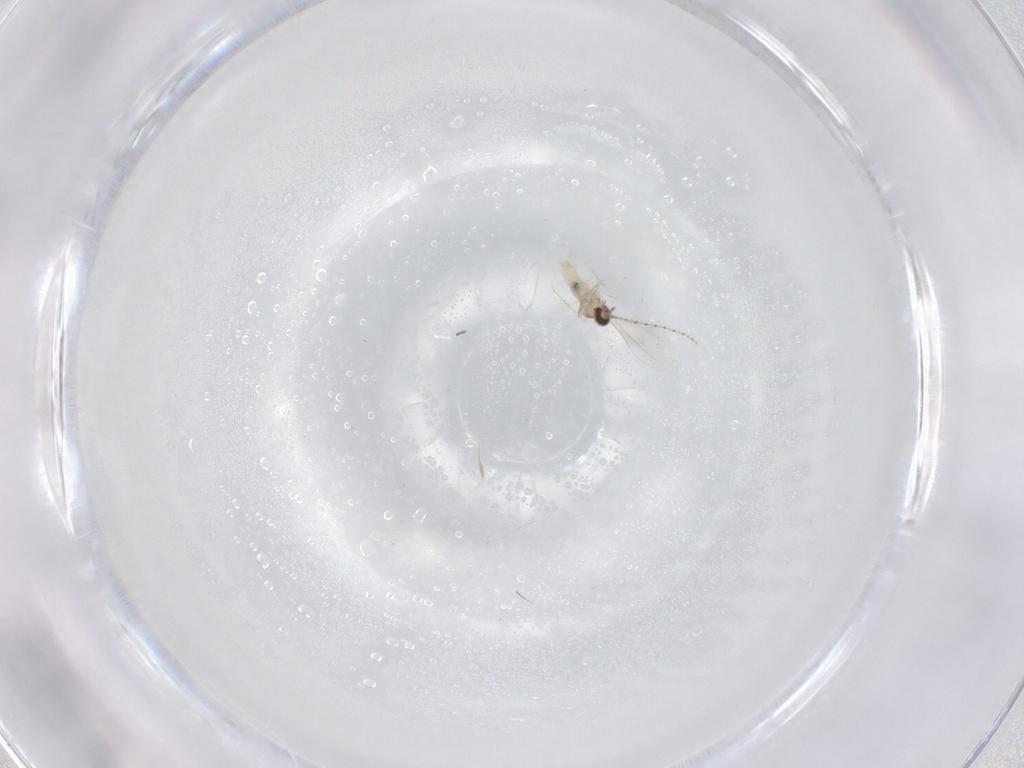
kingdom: Animalia
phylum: Arthropoda
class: Insecta
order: Diptera
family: Cecidomyiidae
